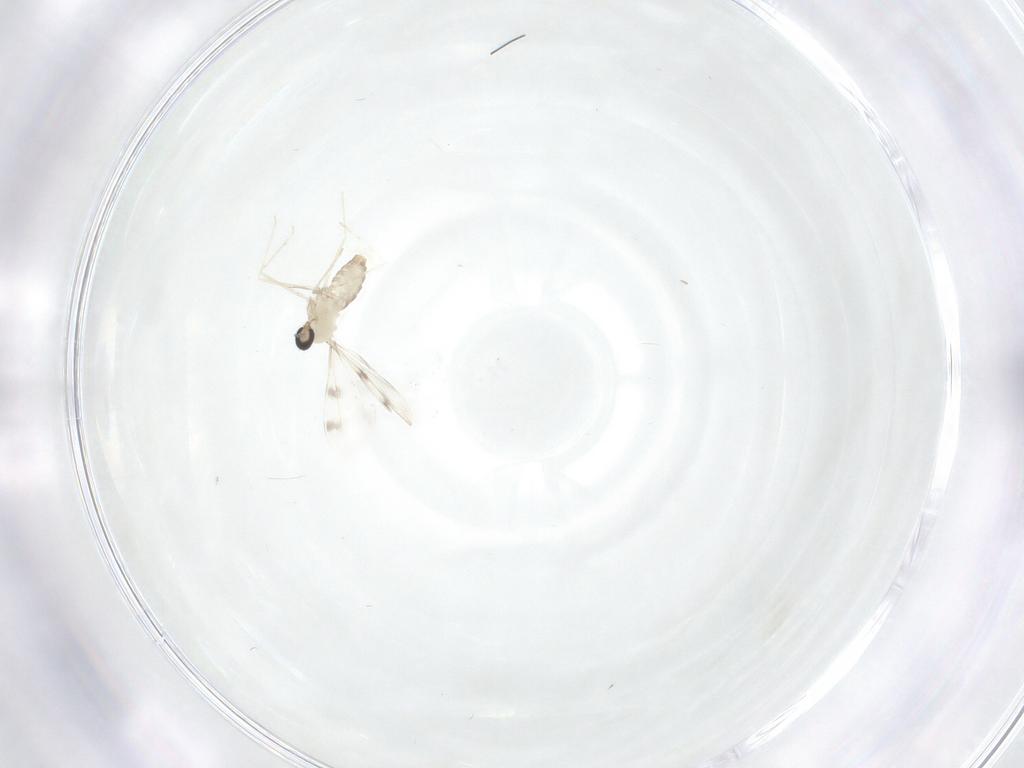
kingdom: Animalia
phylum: Arthropoda
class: Insecta
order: Diptera
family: Cecidomyiidae
